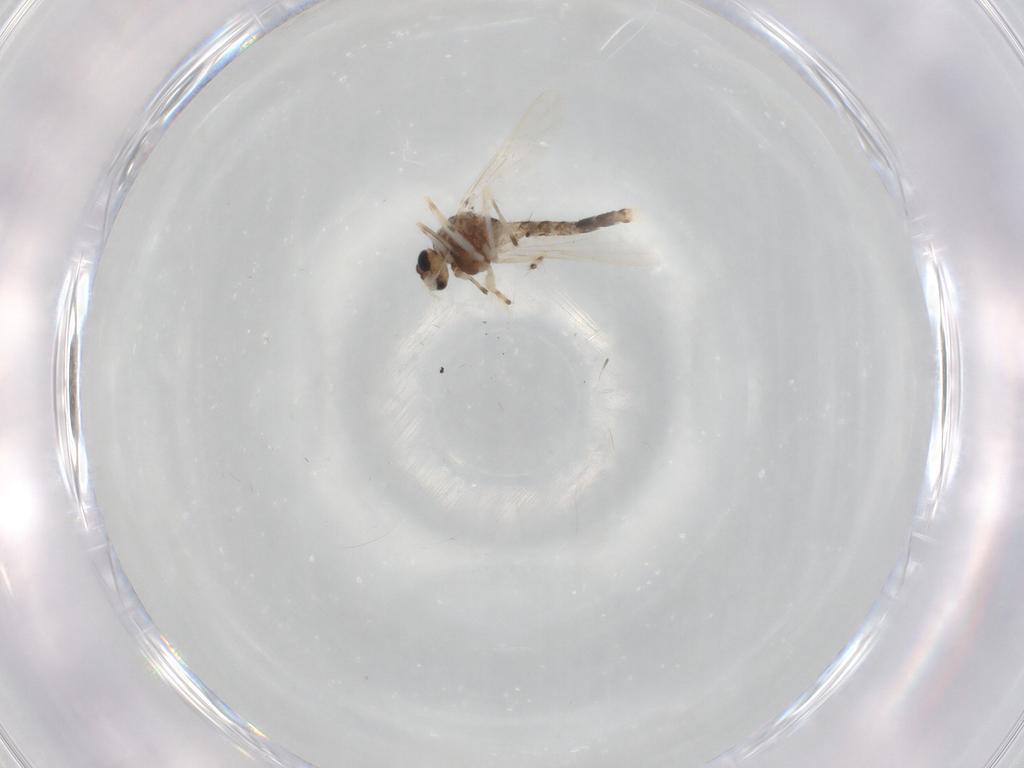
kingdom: Animalia
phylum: Arthropoda
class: Insecta
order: Diptera
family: Chironomidae
